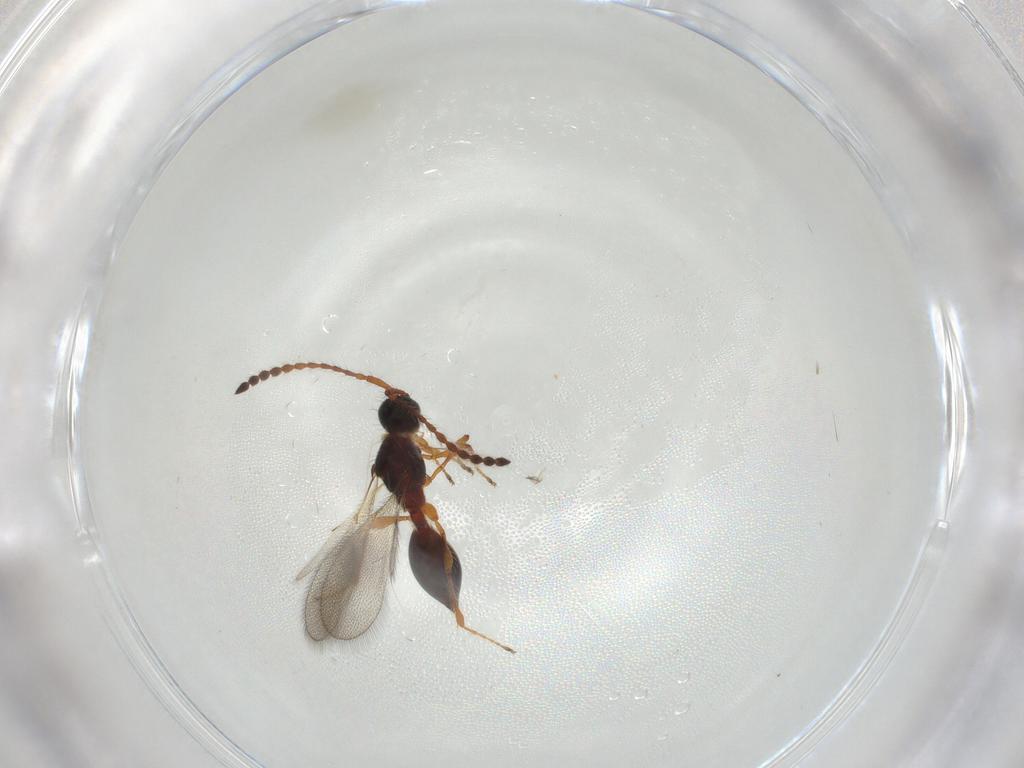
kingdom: Animalia
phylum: Arthropoda
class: Insecta
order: Hymenoptera
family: Diapriidae
